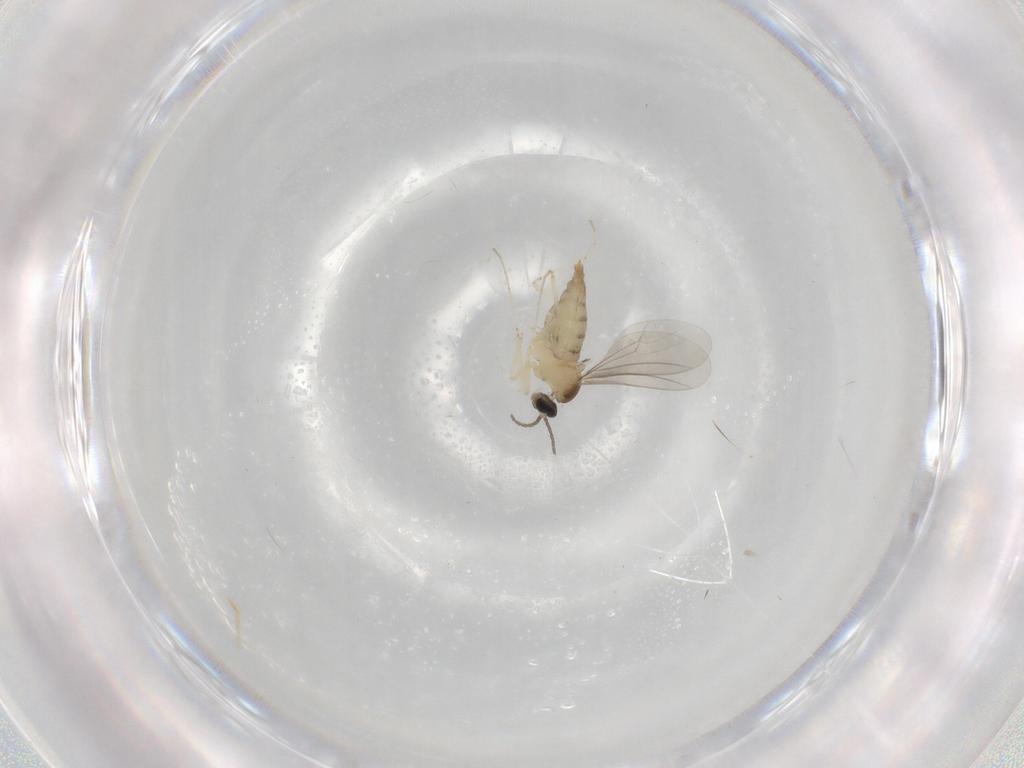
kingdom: Animalia
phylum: Arthropoda
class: Insecta
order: Diptera
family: Cecidomyiidae
